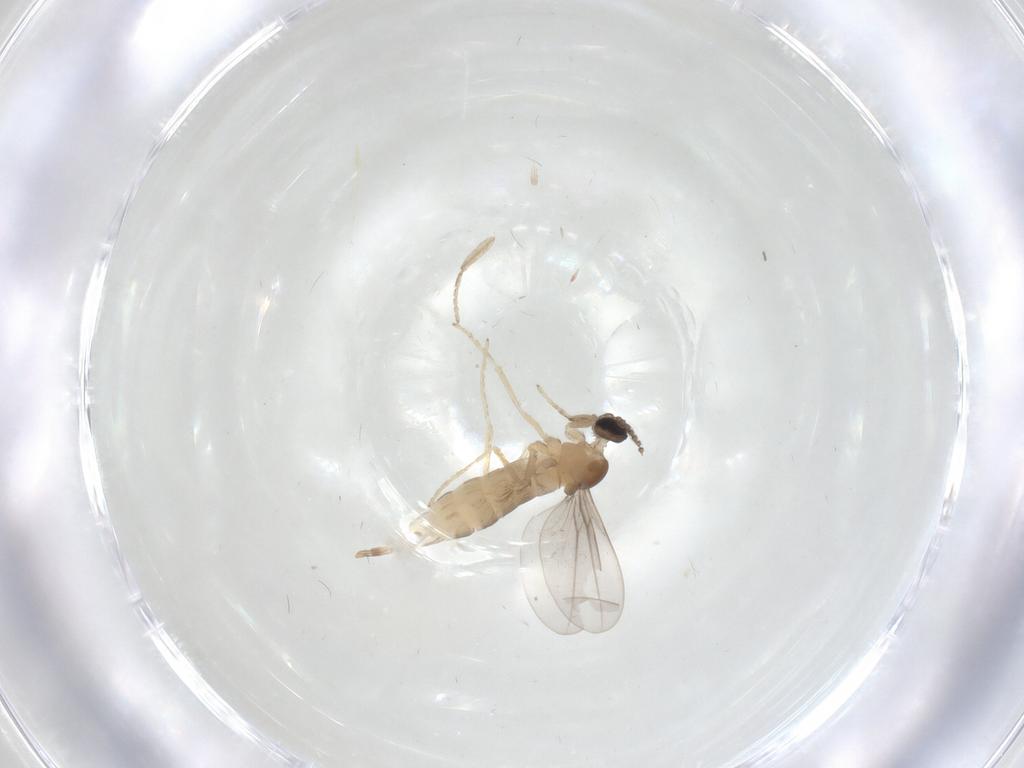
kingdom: Animalia
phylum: Arthropoda
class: Insecta
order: Diptera
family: Cecidomyiidae
